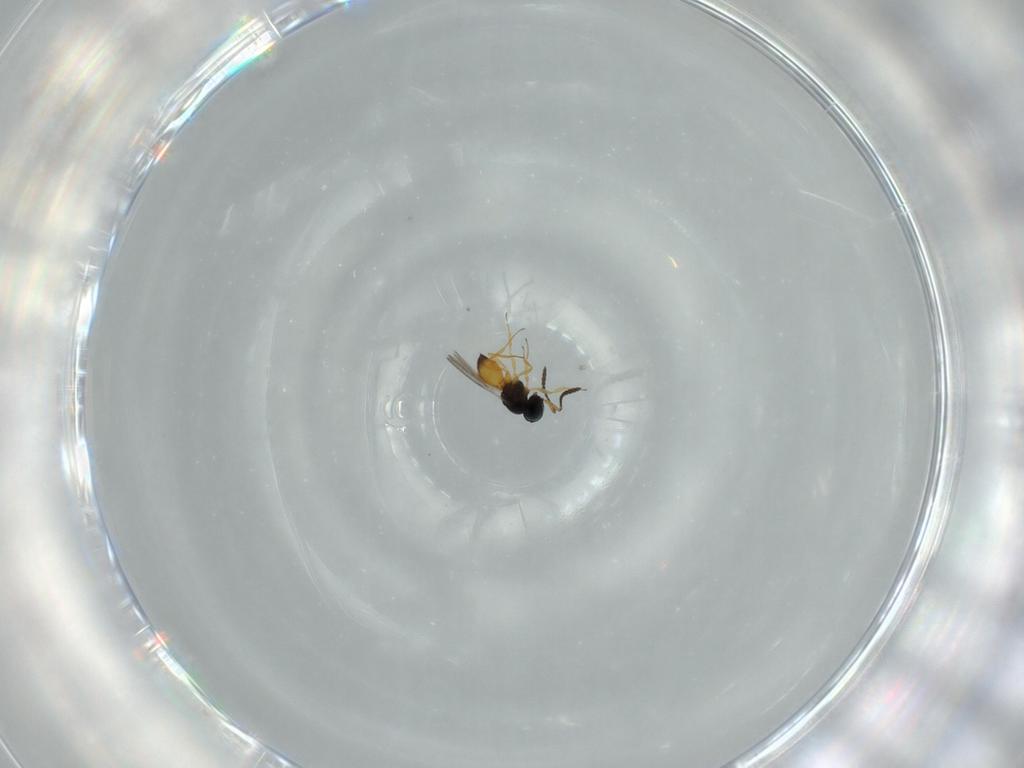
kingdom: Animalia
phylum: Arthropoda
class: Insecta
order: Hymenoptera
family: Scelionidae
